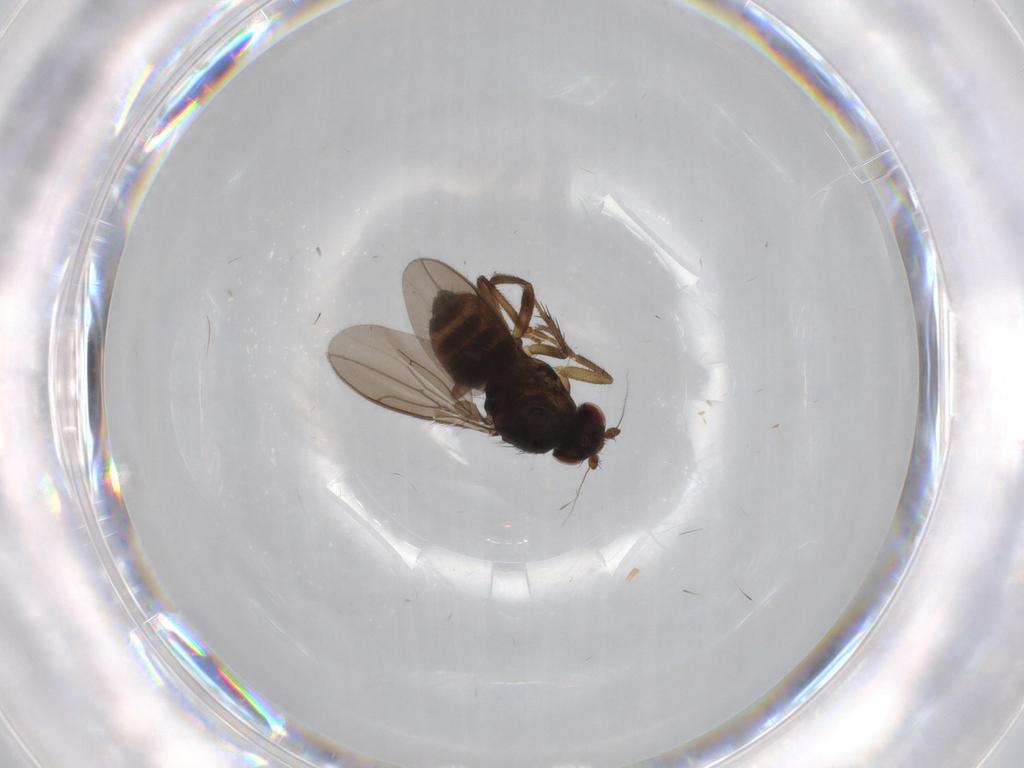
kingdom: Animalia
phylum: Arthropoda
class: Insecta
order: Diptera
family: Sphaeroceridae
